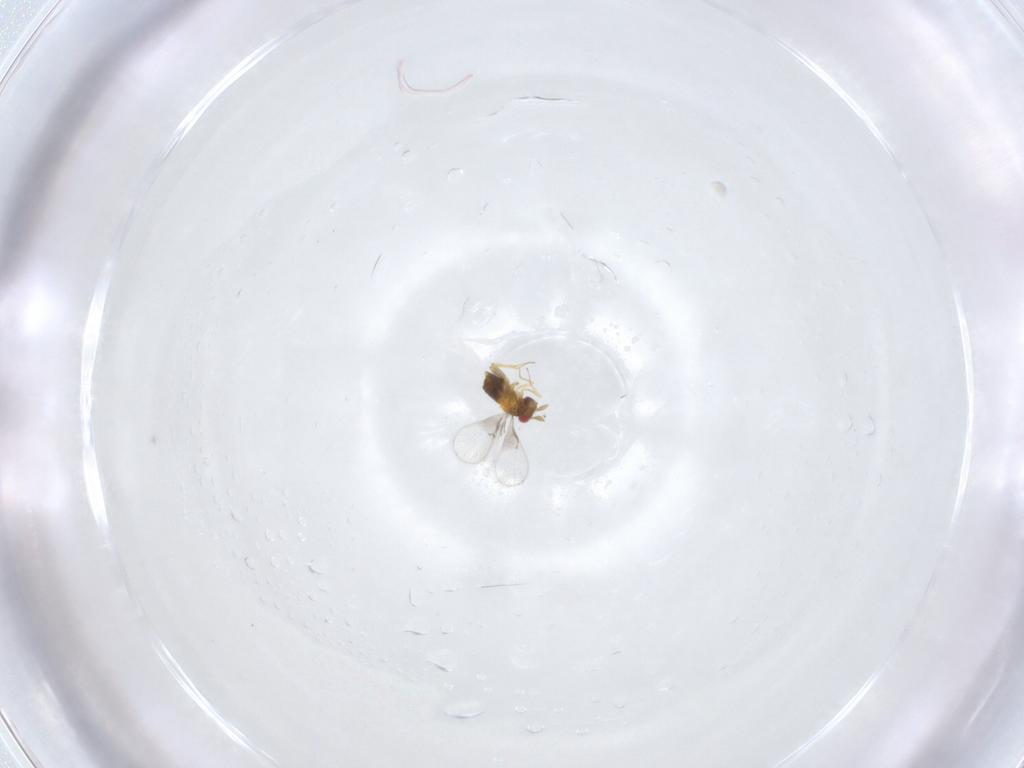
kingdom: Animalia
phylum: Arthropoda
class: Insecta
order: Hymenoptera
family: Trichogrammatidae
